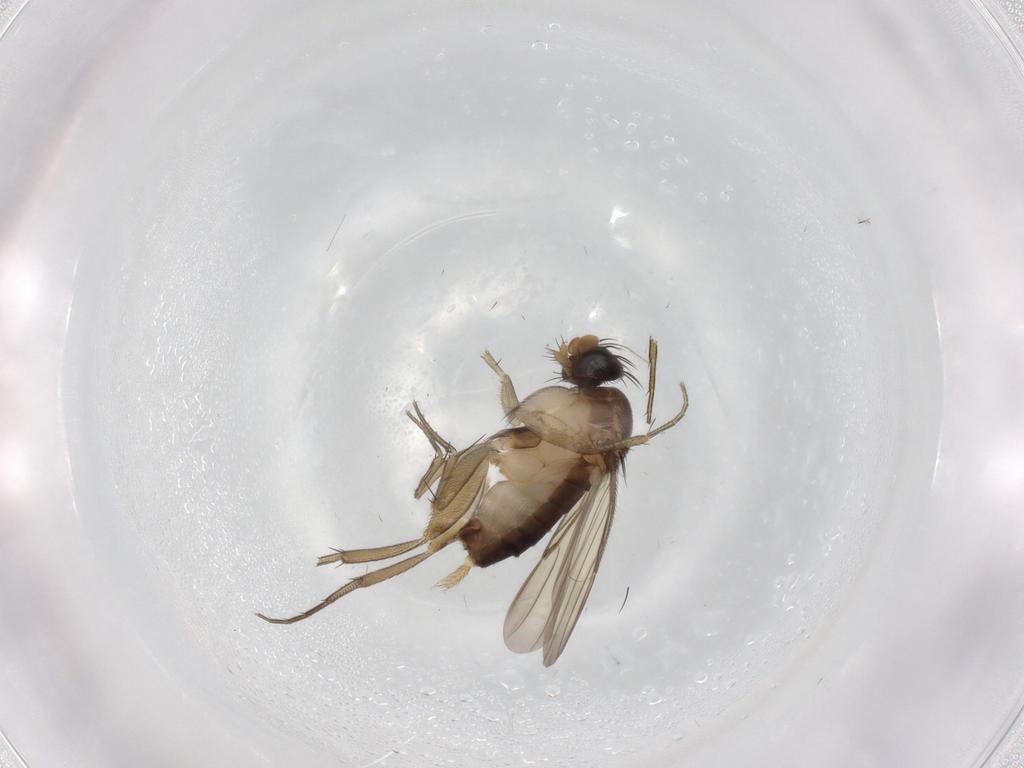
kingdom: Animalia
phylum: Arthropoda
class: Insecta
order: Diptera
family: Phoridae
